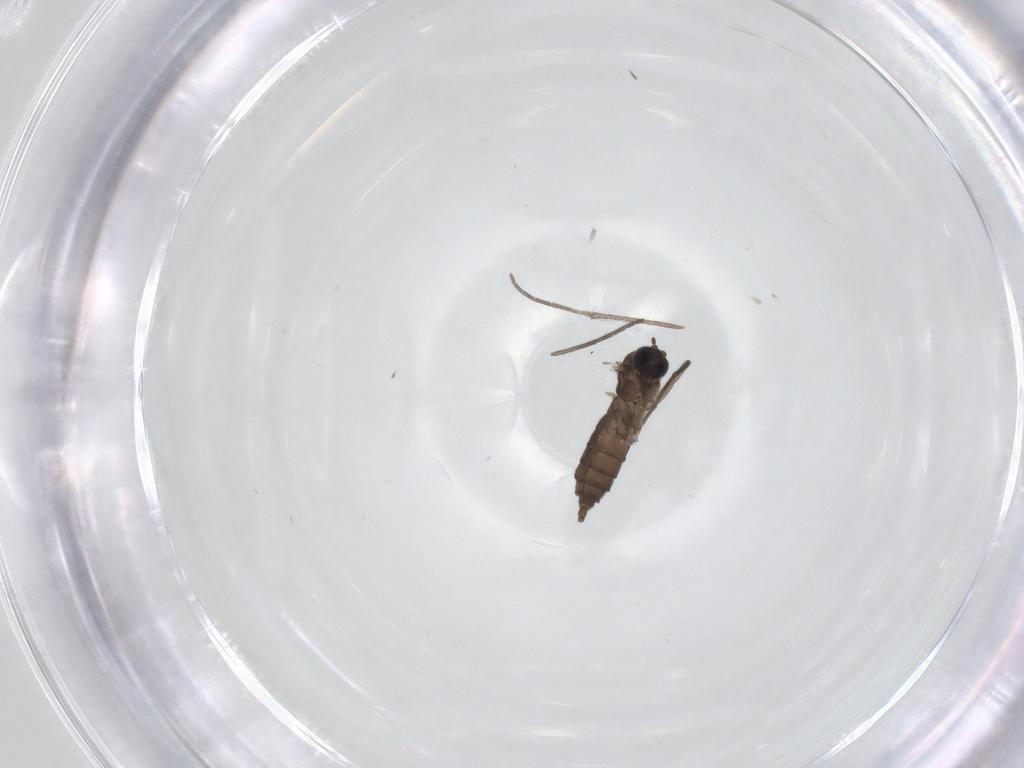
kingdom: Animalia
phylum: Arthropoda
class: Insecta
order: Diptera
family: Sciaridae
